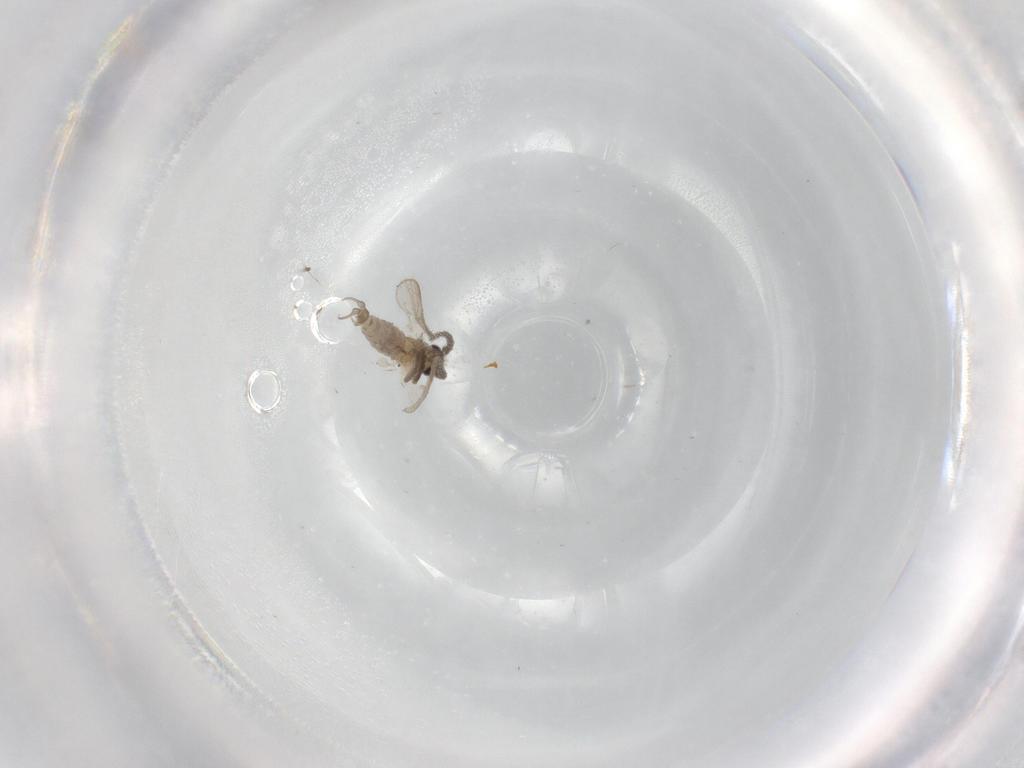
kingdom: Animalia
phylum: Arthropoda
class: Insecta
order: Diptera
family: Psychodidae
